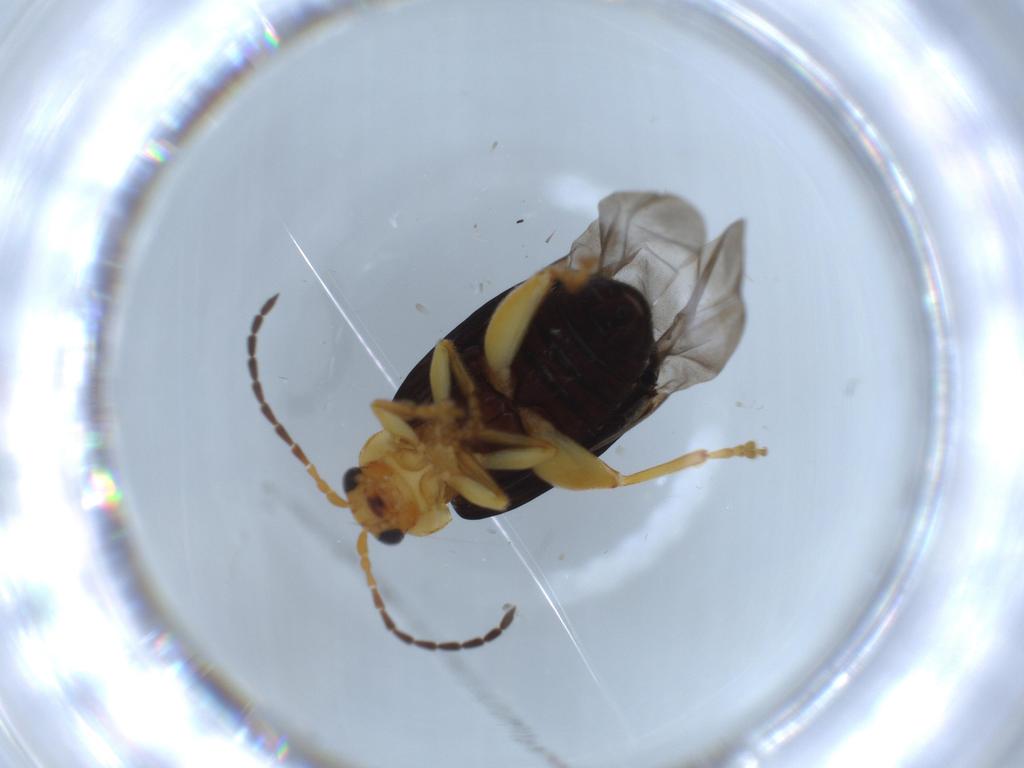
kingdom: Animalia
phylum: Arthropoda
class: Insecta
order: Coleoptera
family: Chrysomelidae
